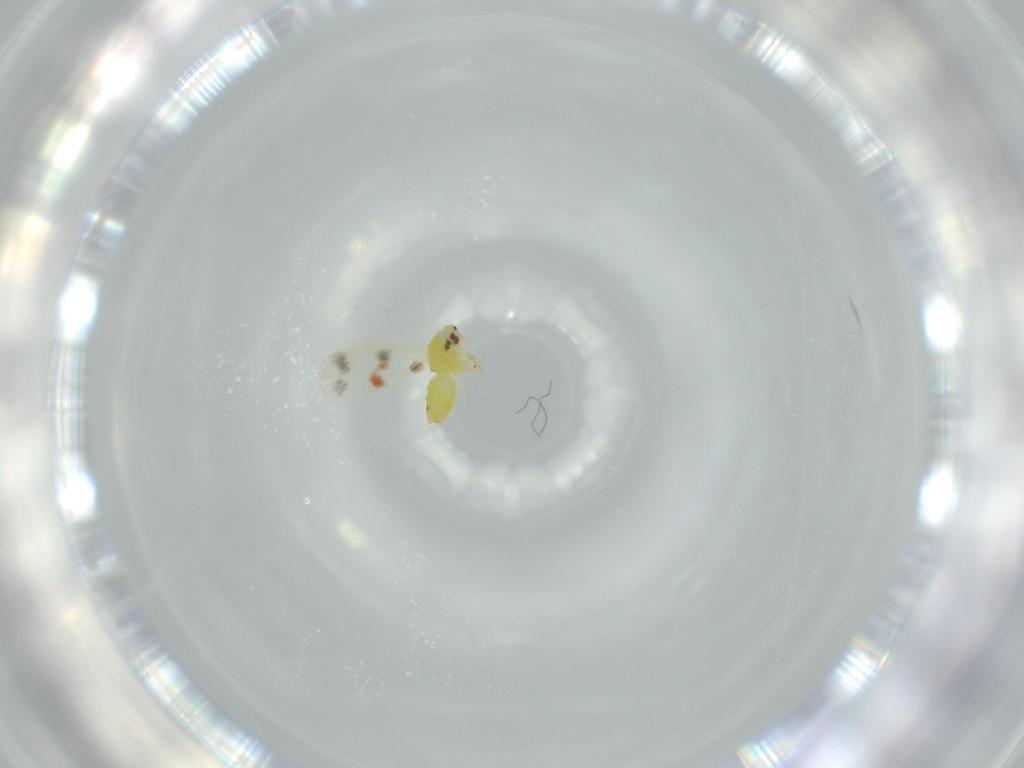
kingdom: Animalia
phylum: Arthropoda
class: Insecta
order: Hemiptera
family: Aleyrodidae
